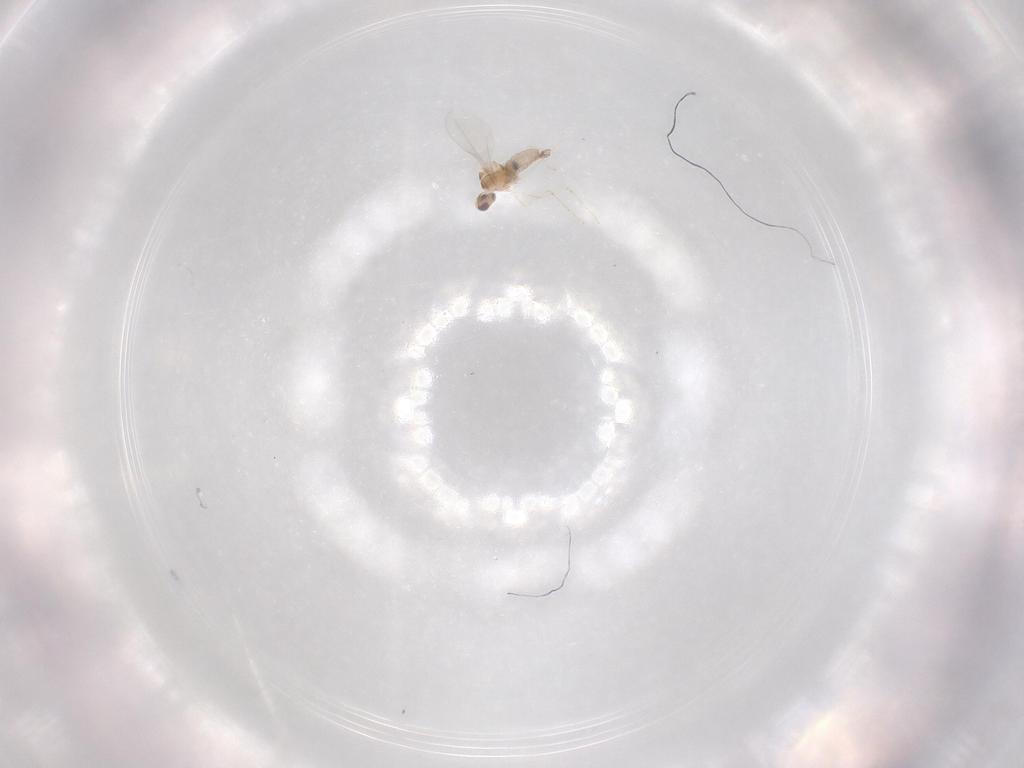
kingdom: Animalia
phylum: Arthropoda
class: Insecta
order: Diptera
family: Cecidomyiidae
